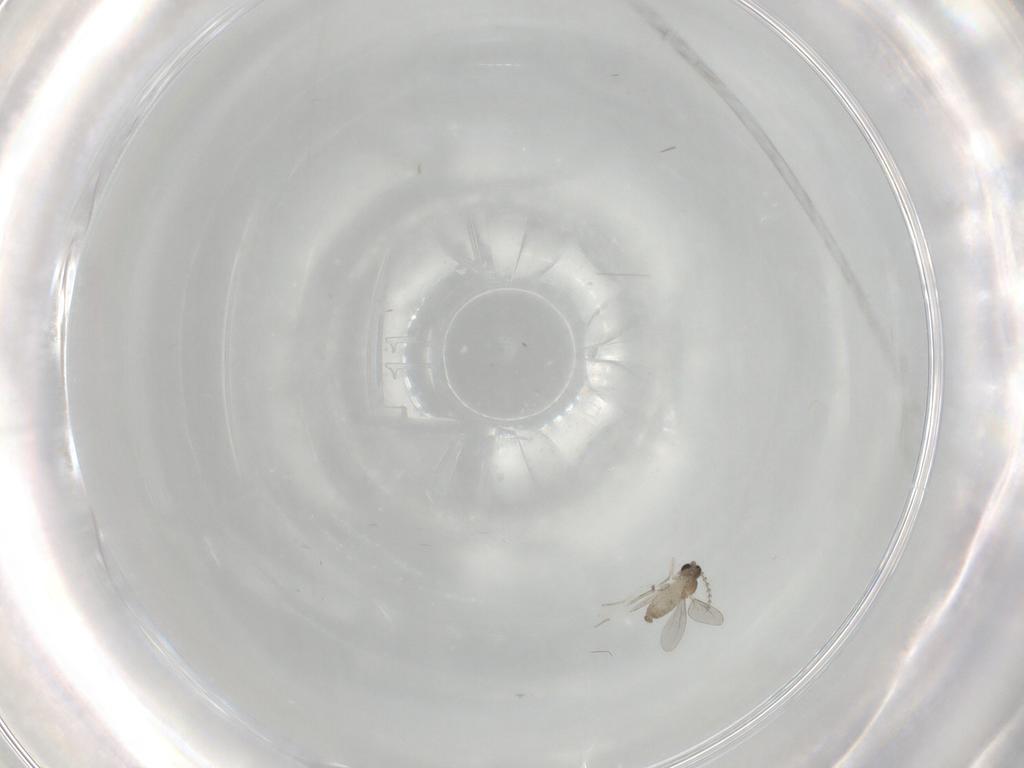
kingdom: Animalia
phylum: Arthropoda
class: Insecta
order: Diptera
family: Cecidomyiidae
